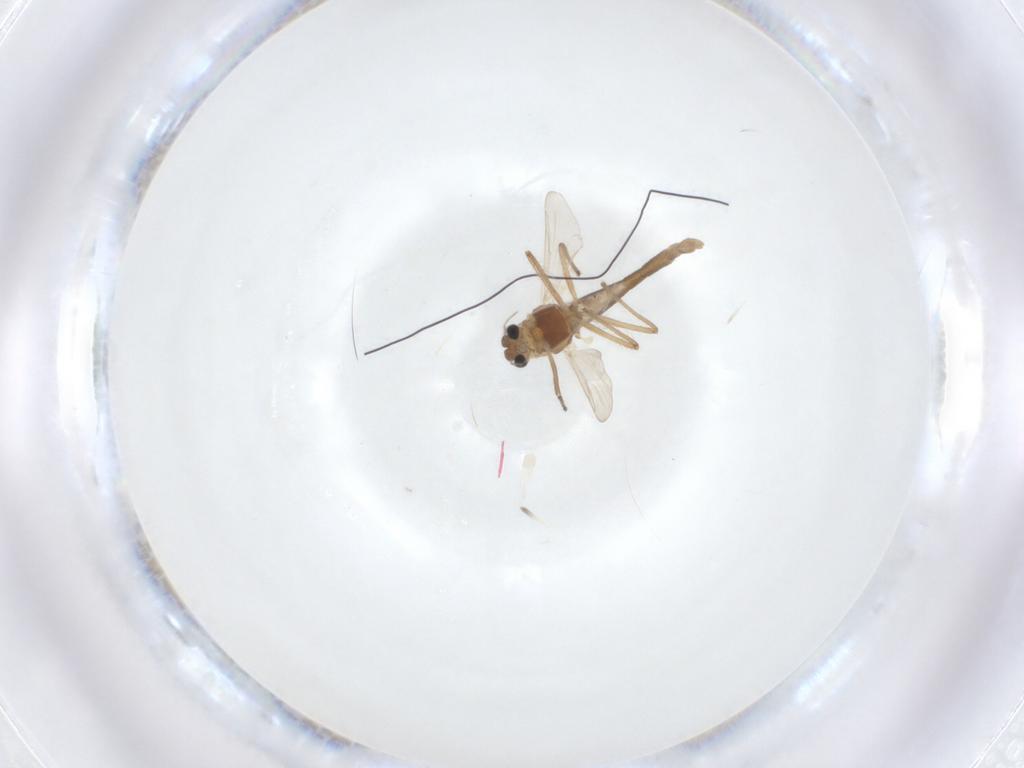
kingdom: Animalia
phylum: Arthropoda
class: Insecta
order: Diptera
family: Chironomidae
